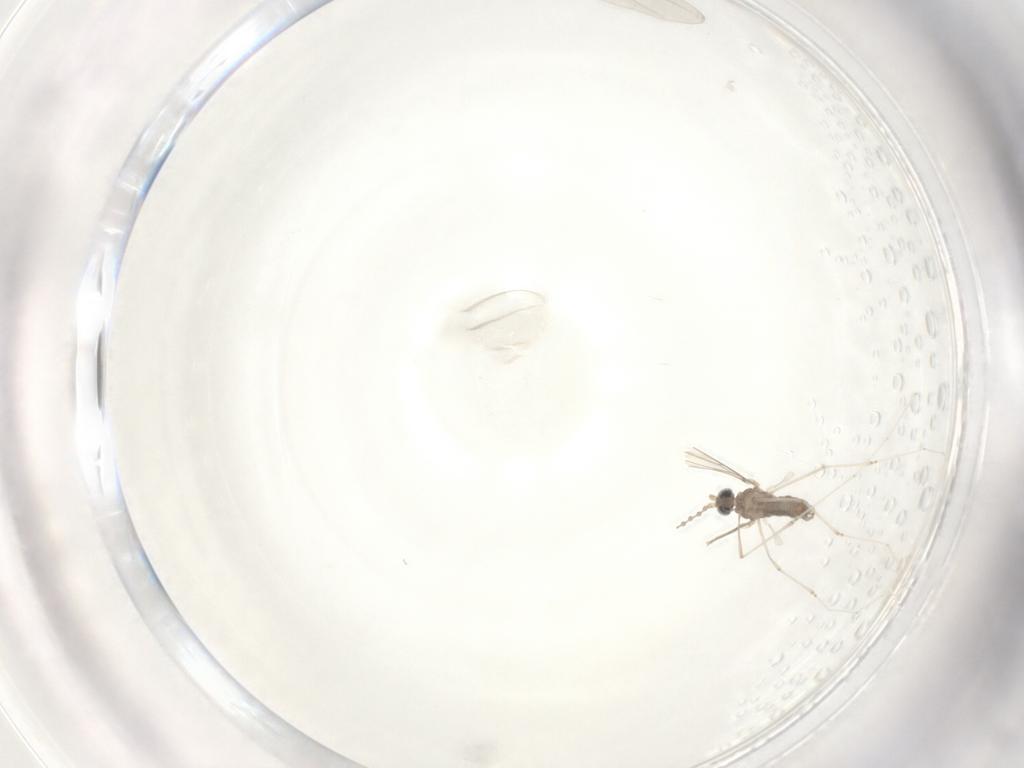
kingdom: Animalia
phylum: Arthropoda
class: Insecta
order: Diptera
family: Cecidomyiidae
